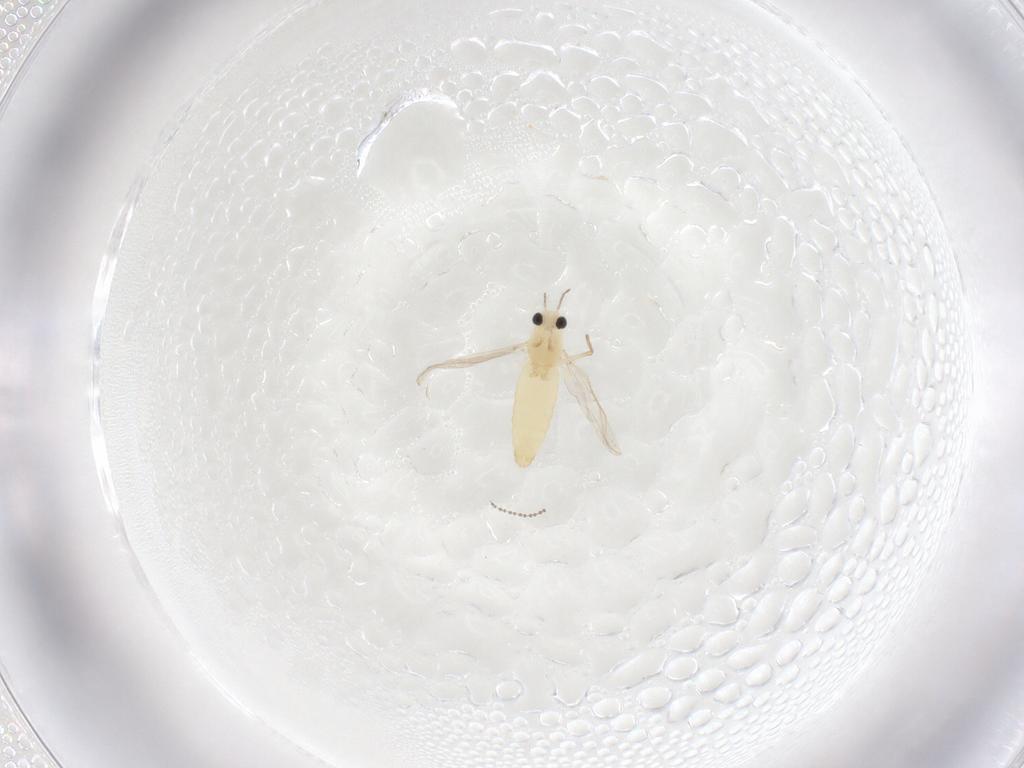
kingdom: Animalia
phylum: Arthropoda
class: Insecta
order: Diptera
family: Chironomidae
